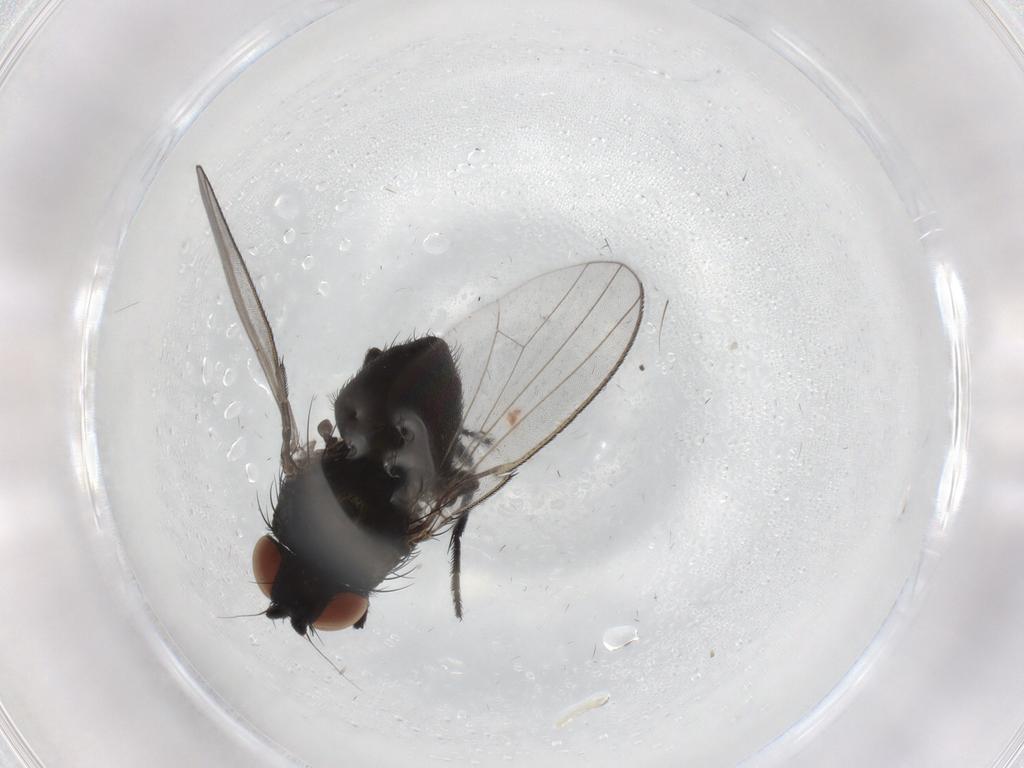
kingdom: Animalia
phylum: Arthropoda
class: Insecta
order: Diptera
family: Milichiidae
